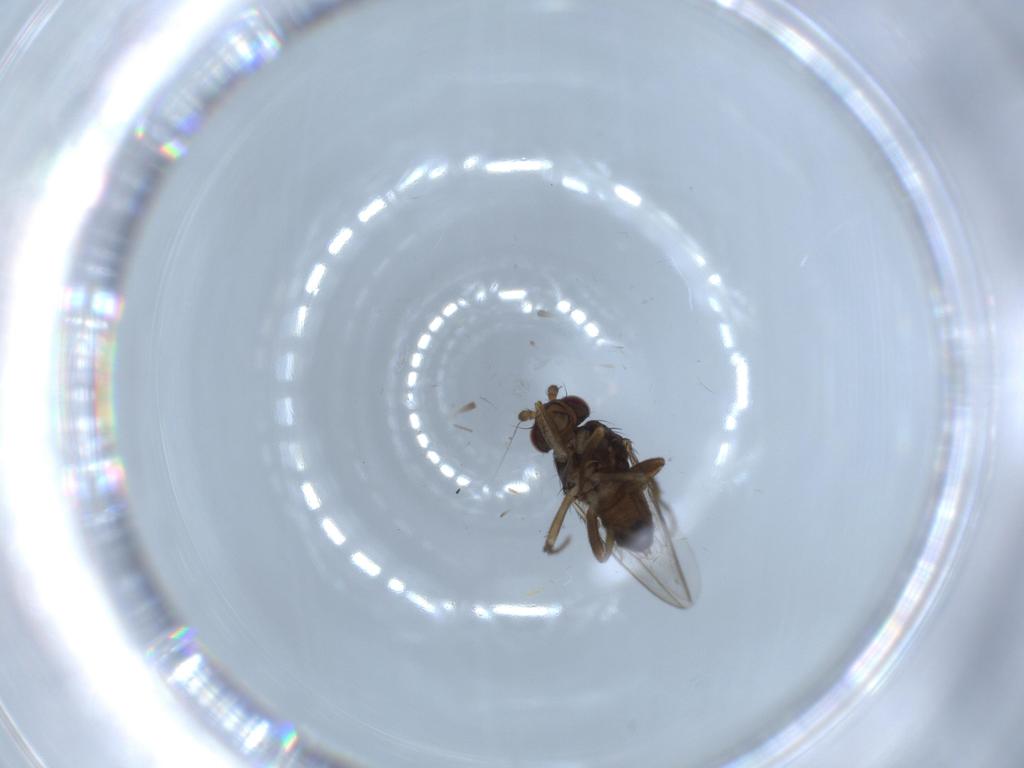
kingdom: Animalia
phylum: Arthropoda
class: Insecta
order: Diptera
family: Sphaeroceridae
